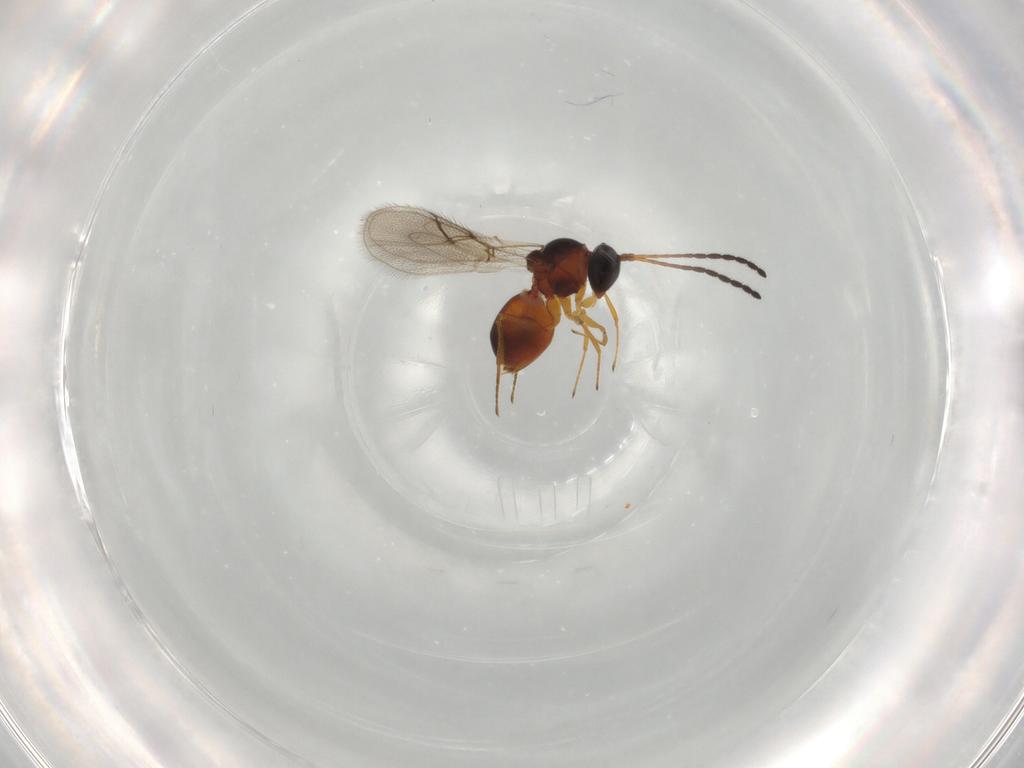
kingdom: Animalia
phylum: Arthropoda
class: Insecta
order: Hymenoptera
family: Figitidae
